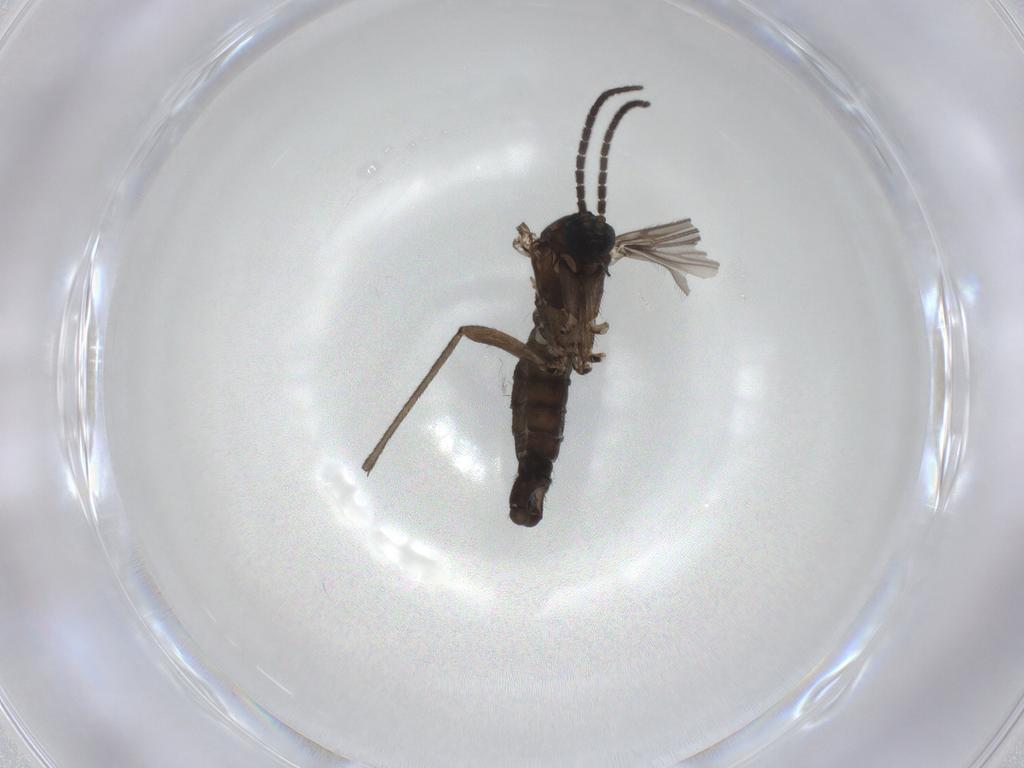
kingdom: Animalia
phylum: Arthropoda
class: Insecta
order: Diptera
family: Sciaridae
